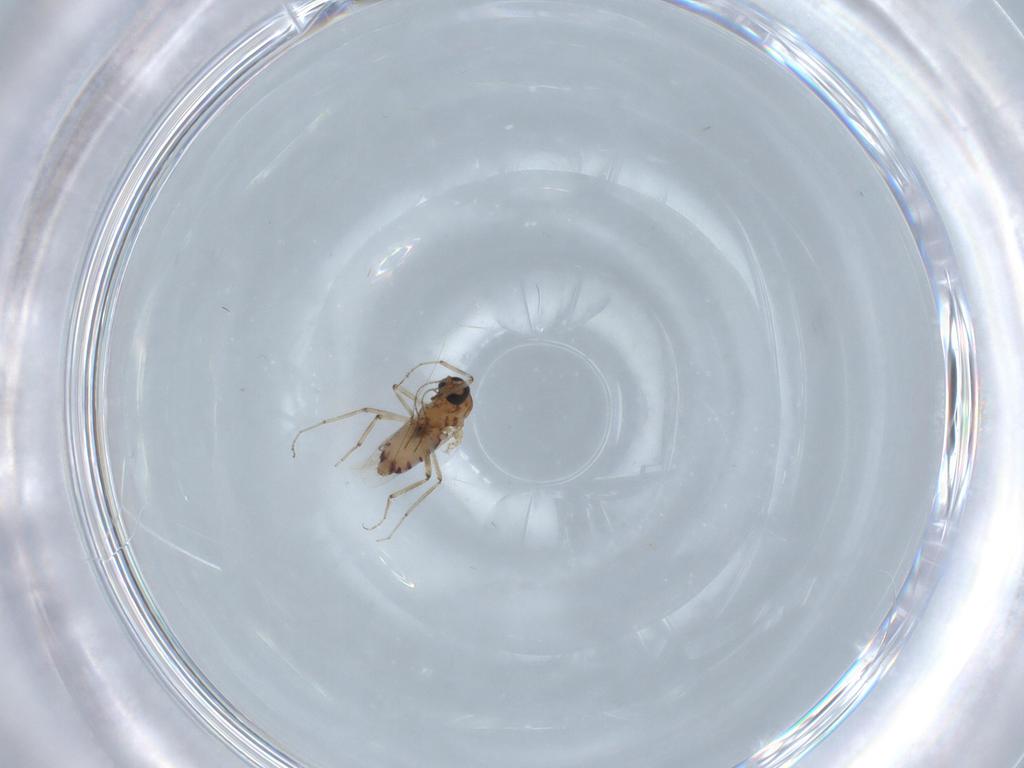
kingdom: Animalia
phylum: Arthropoda
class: Insecta
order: Diptera
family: Ceratopogonidae
